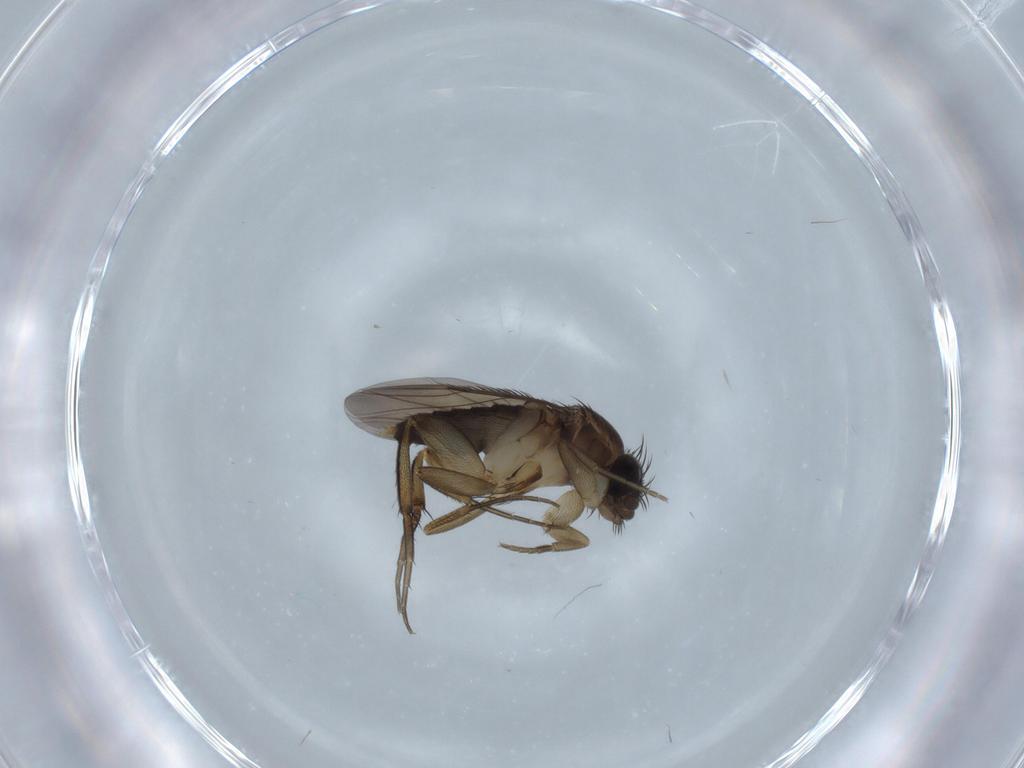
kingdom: Animalia
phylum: Arthropoda
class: Insecta
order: Diptera
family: Phoridae
